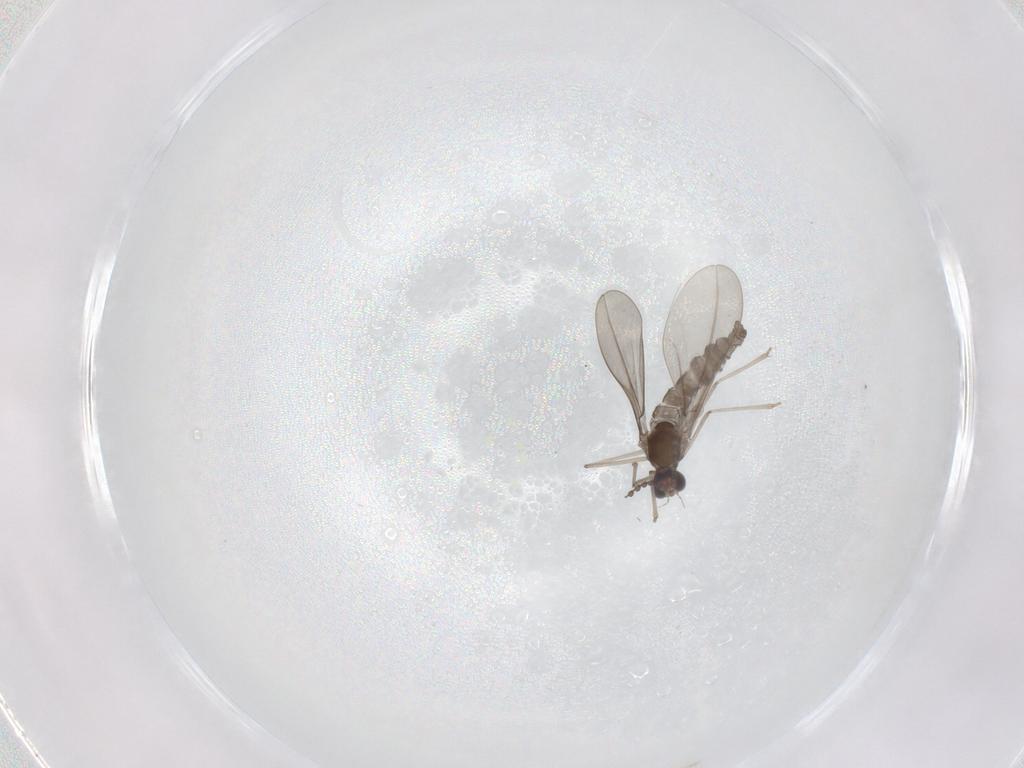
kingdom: Animalia
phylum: Arthropoda
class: Insecta
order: Diptera
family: Cecidomyiidae
